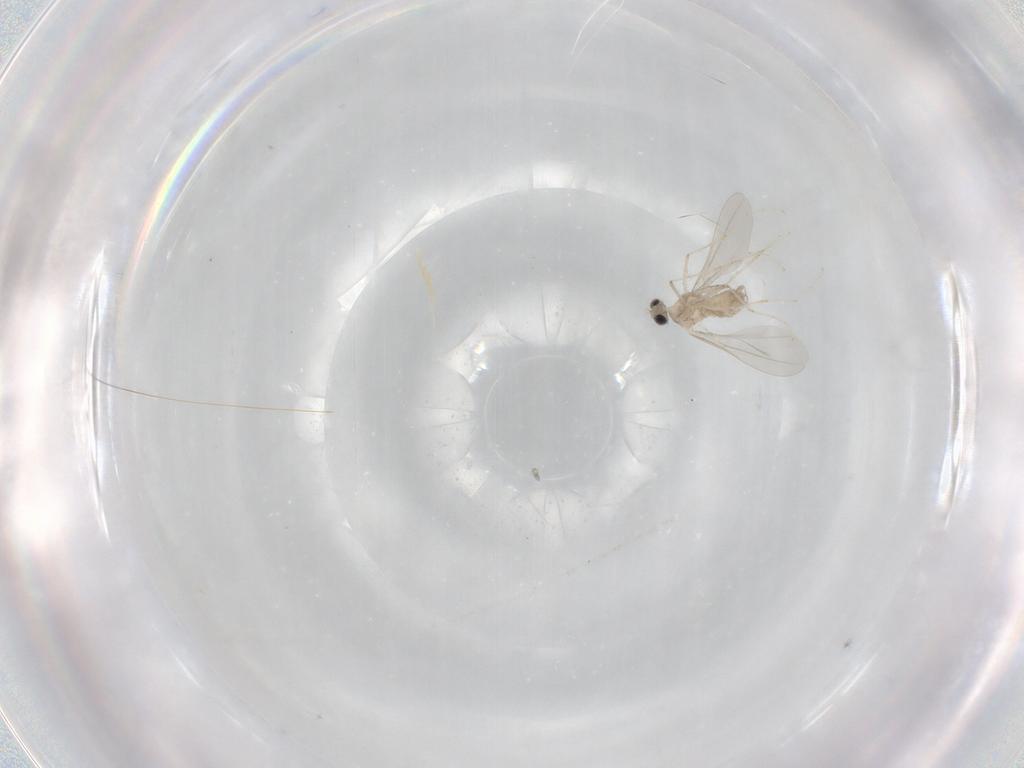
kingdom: Animalia
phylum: Arthropoda
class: Insecta
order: Diptera
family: Cecidomyiidae
